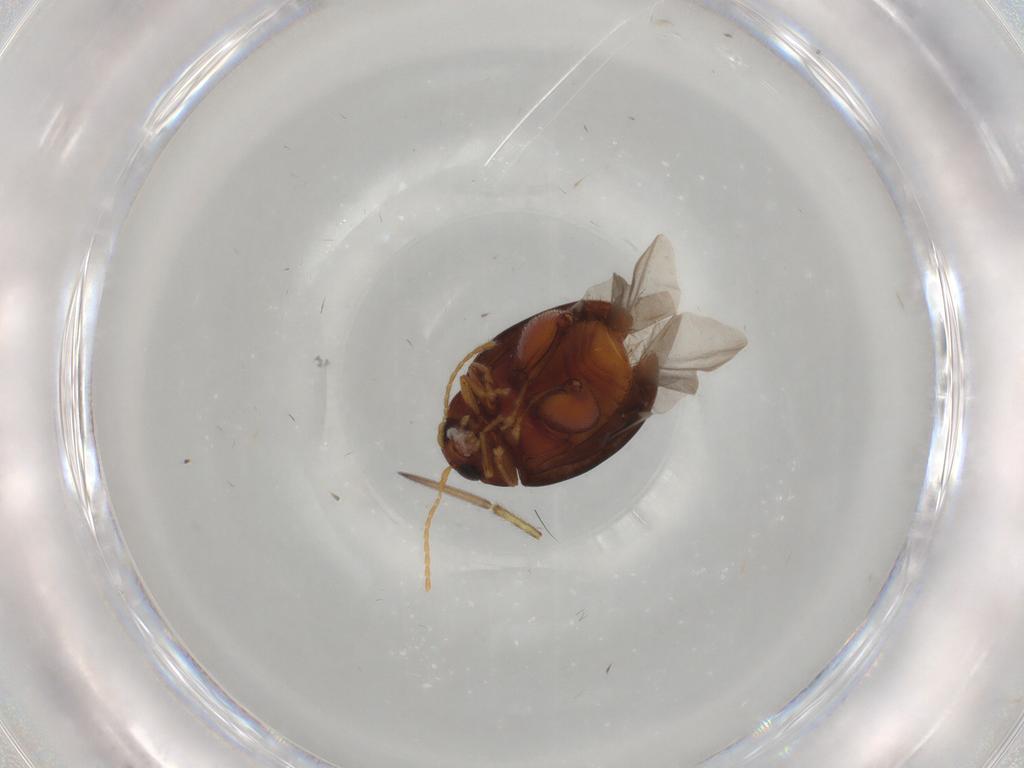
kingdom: Animalia
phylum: Arthropoda
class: Insecta
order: Coleoptera
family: Chrysomelidae
